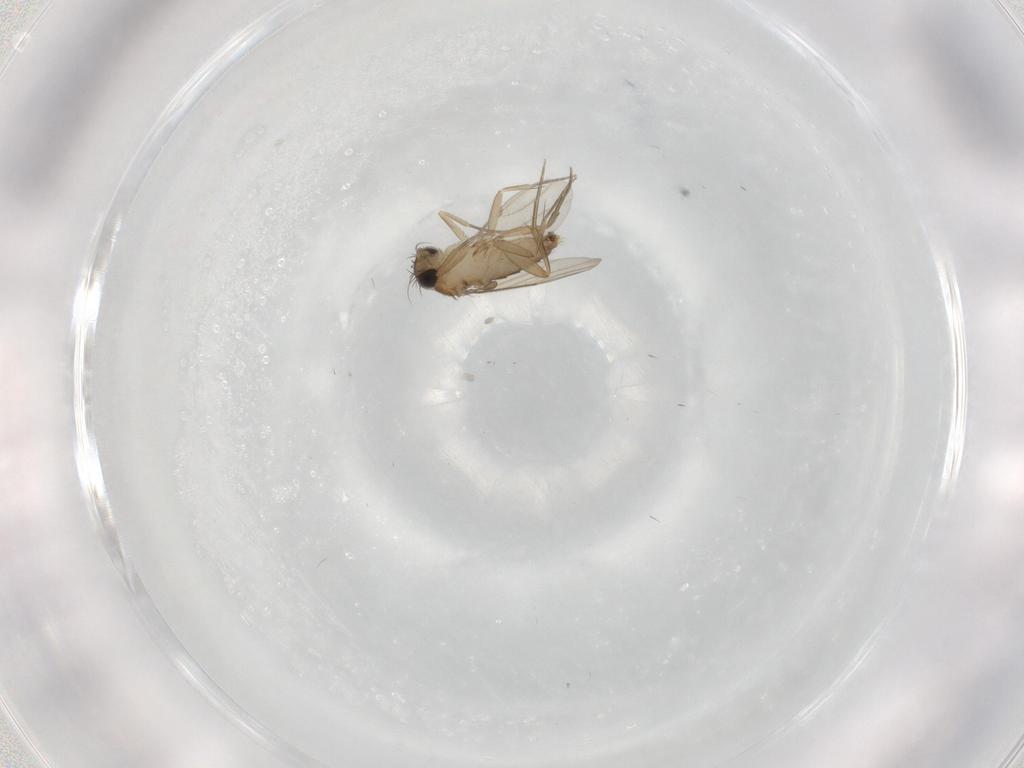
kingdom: Animalia
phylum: Arthropoda
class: Insecta
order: Diptera
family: Phoridae
